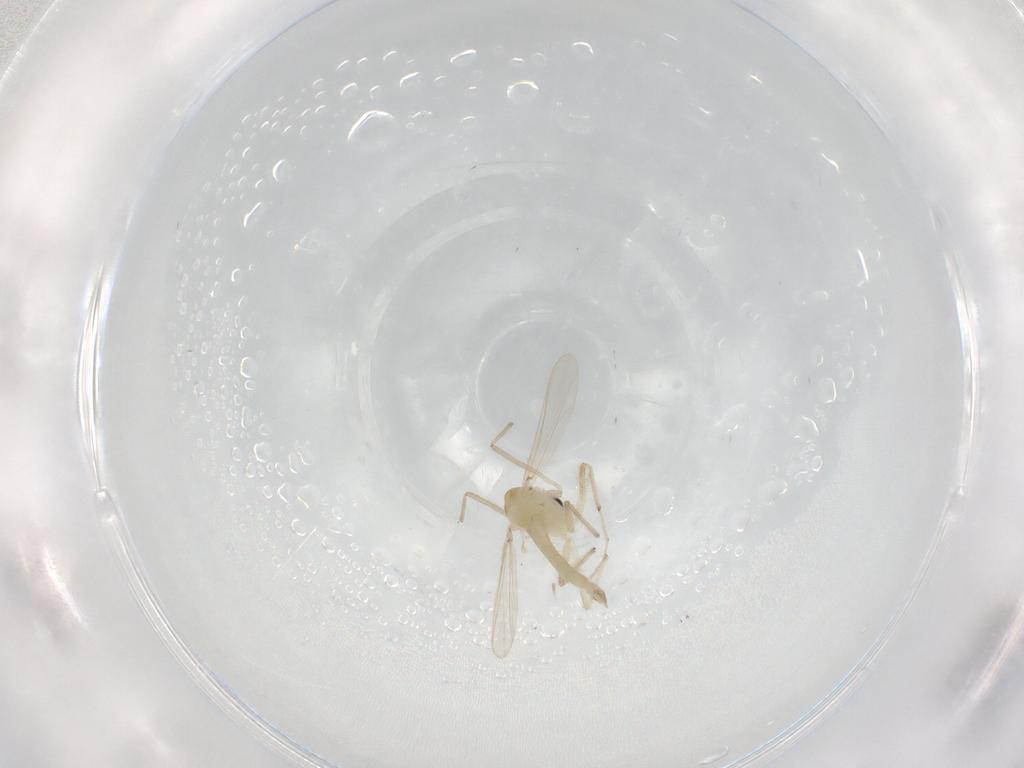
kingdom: Animalia
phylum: Arthropoda
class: Insecta
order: Diptera
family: Chironomidae
